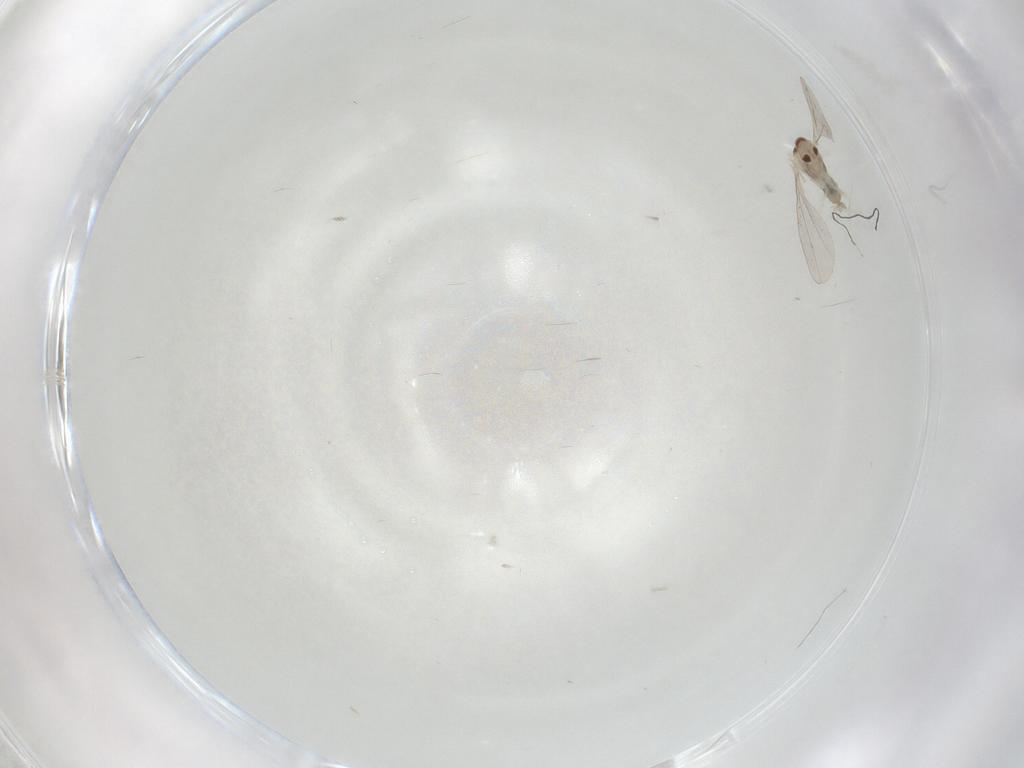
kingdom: Animalia
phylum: Arthropoda
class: Insecta
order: Diptera
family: Cecidomyiidae
